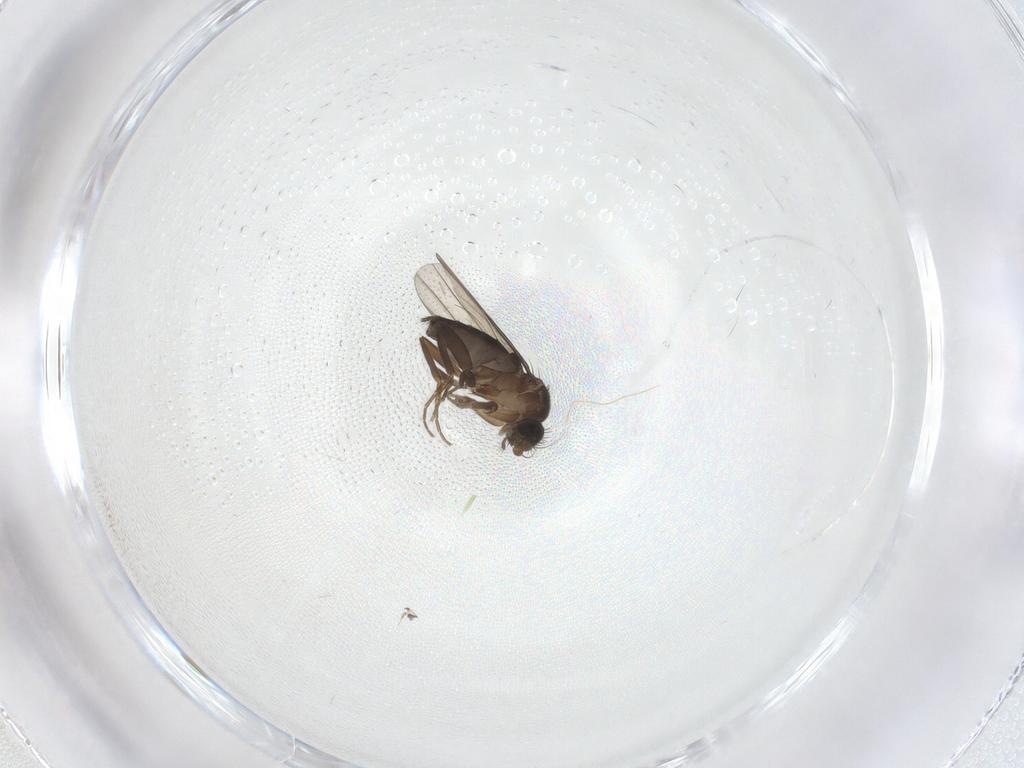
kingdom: Animalia
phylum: Arthropoda
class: Insecta
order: Diptera
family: Chironomidae
